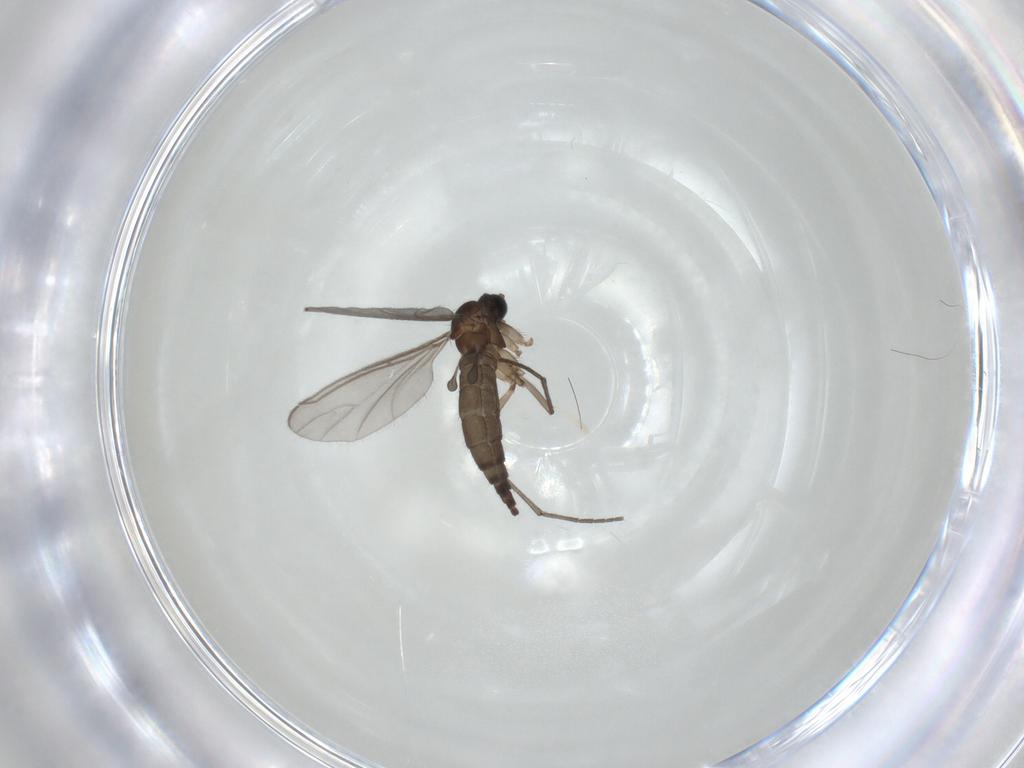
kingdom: Animalia
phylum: Arthropoda
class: Insecta
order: Diptera
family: Sciaridae
